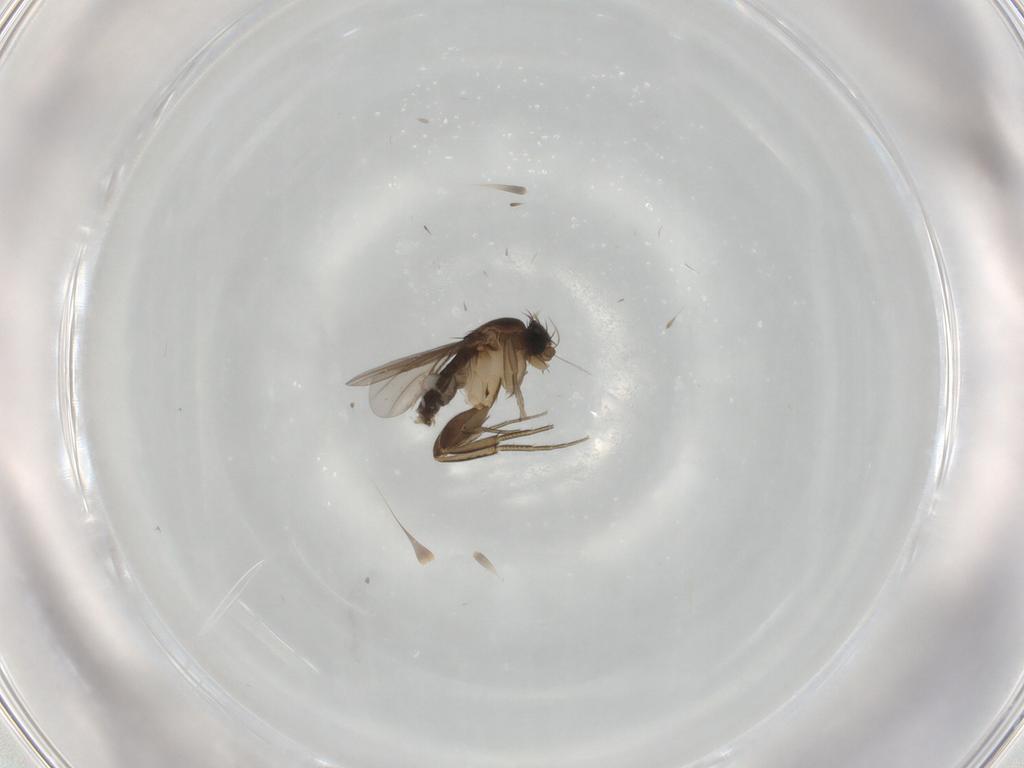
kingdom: Animalia
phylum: Arthropoda
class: Insecta
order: Diptera
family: Phoridae
